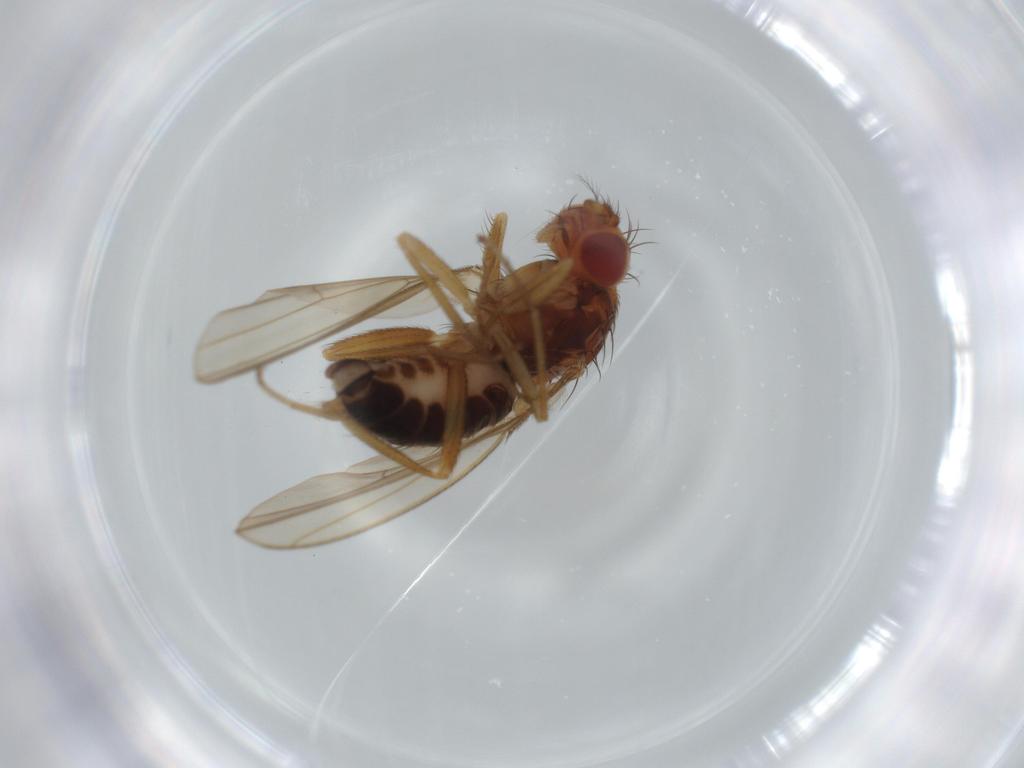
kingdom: Animalia
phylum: Arthropoda
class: Insecta
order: Diptera
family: Drosophilidae
